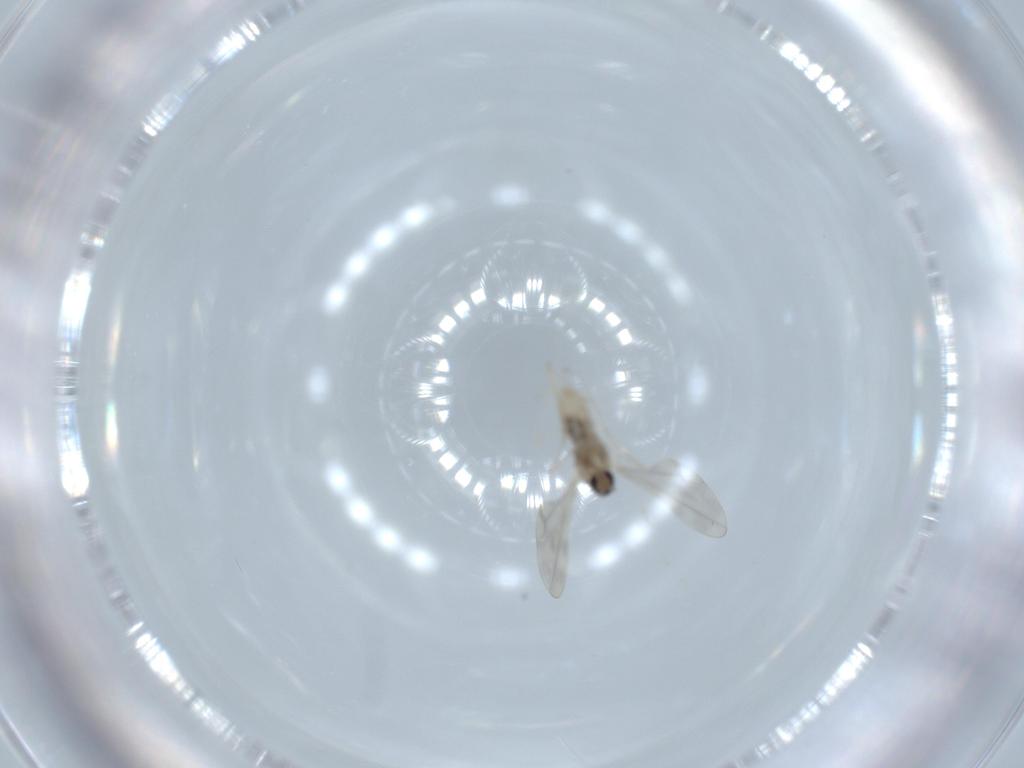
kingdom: Animalia
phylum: Arthropoda
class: Insecta
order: Diptera
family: Cecidomyiidae
